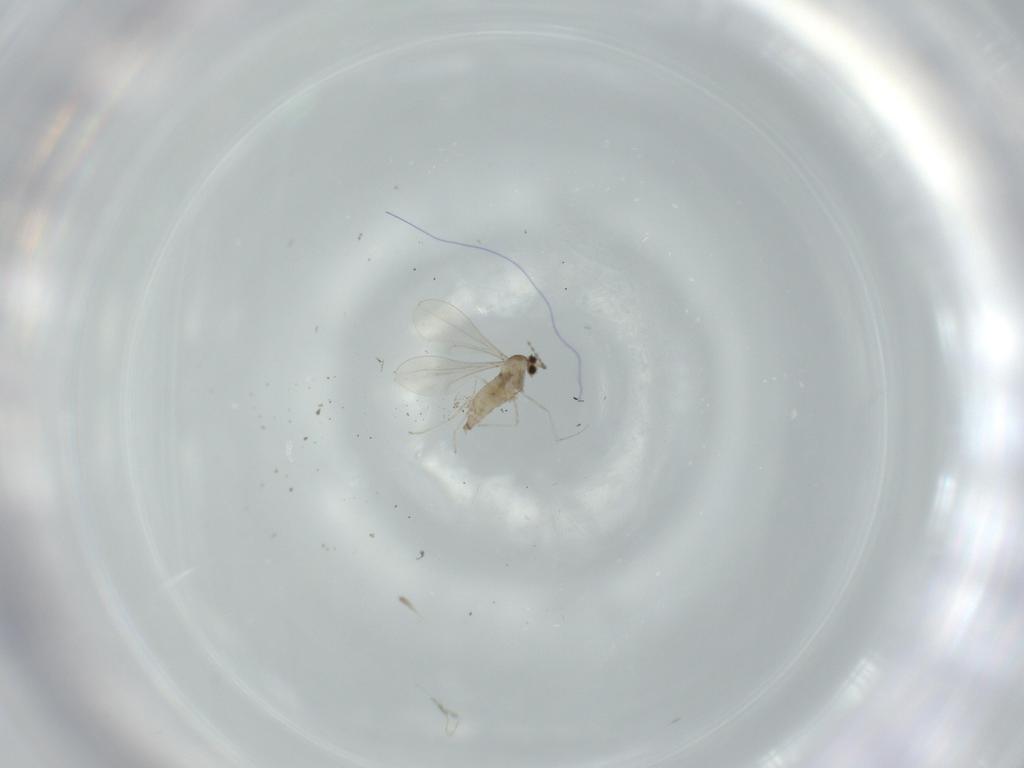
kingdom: Animalia
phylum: Arthropoda
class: Insecta
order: Diptera
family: Cecidomyiidae
